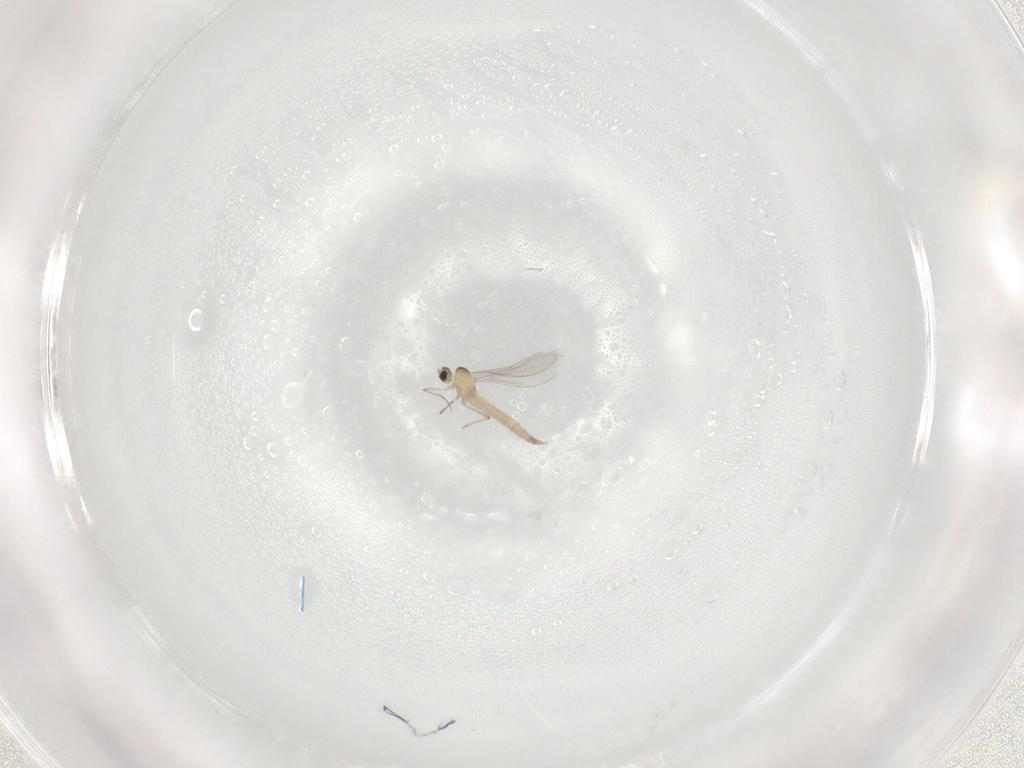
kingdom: Animalia
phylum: Arthropoda
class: Insecta
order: Diptera
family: Cecidomyiidae
